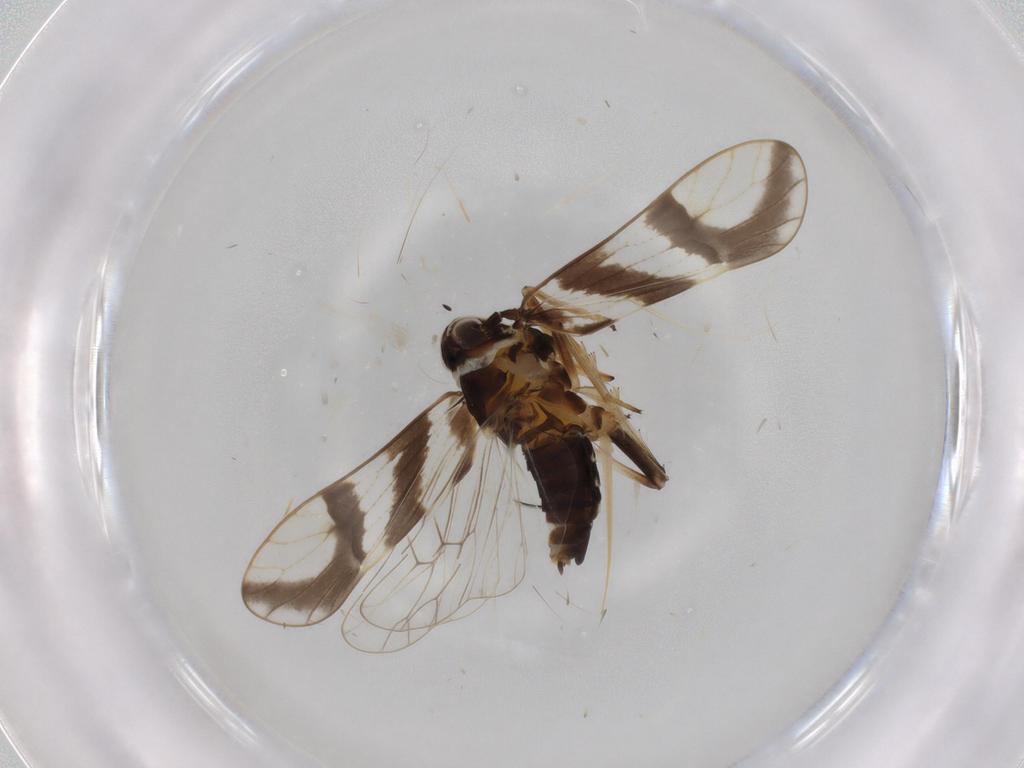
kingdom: Animalia
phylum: Arthropoda
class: Insecta
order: Hemiptera
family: Delphacidae
